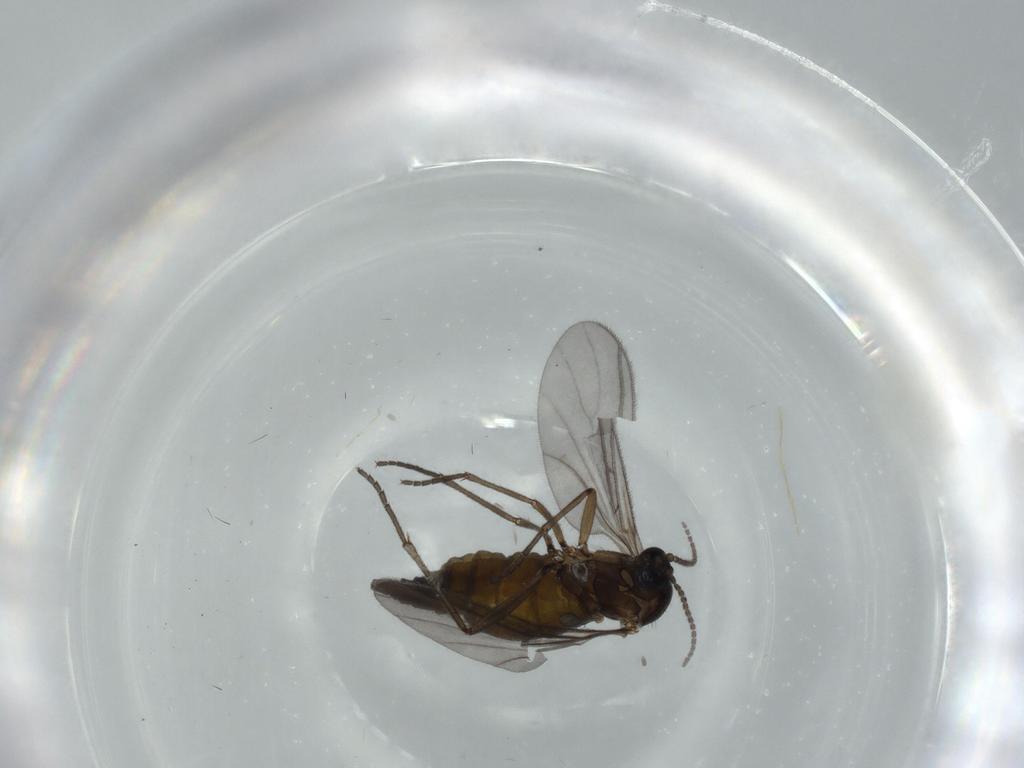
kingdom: Animalia
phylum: Arthropoda
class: Insecta
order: Diptera
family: Sciaridae
